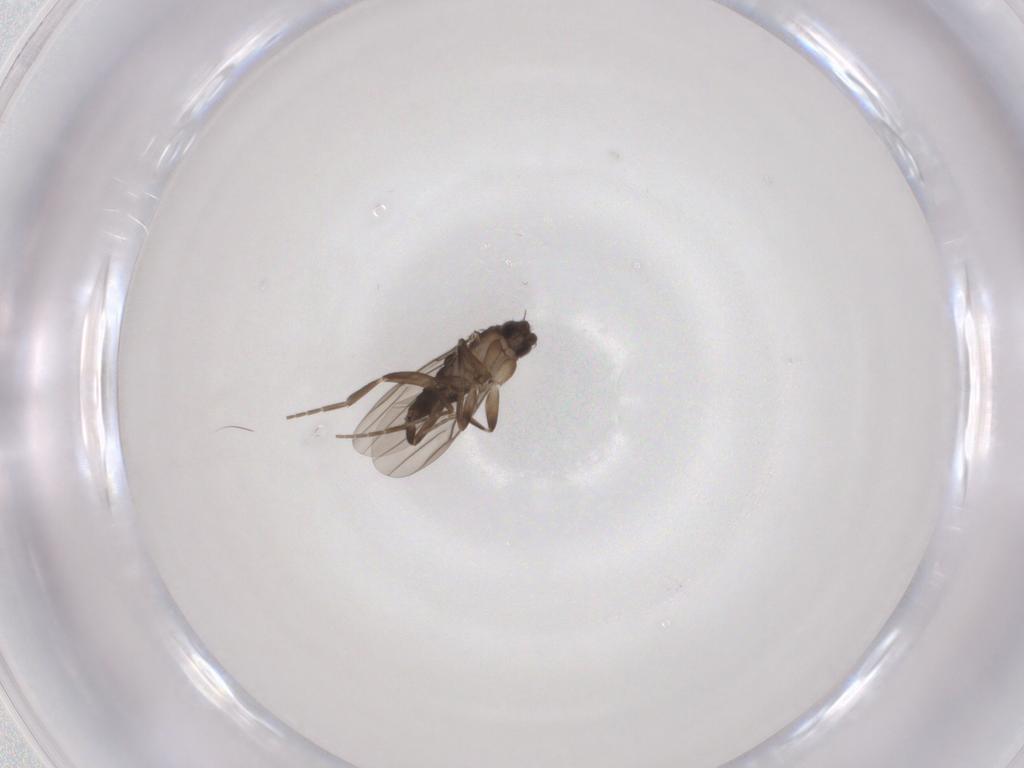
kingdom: Animalia
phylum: Arthropoda
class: Insecta
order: Diptera
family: Phoridae
